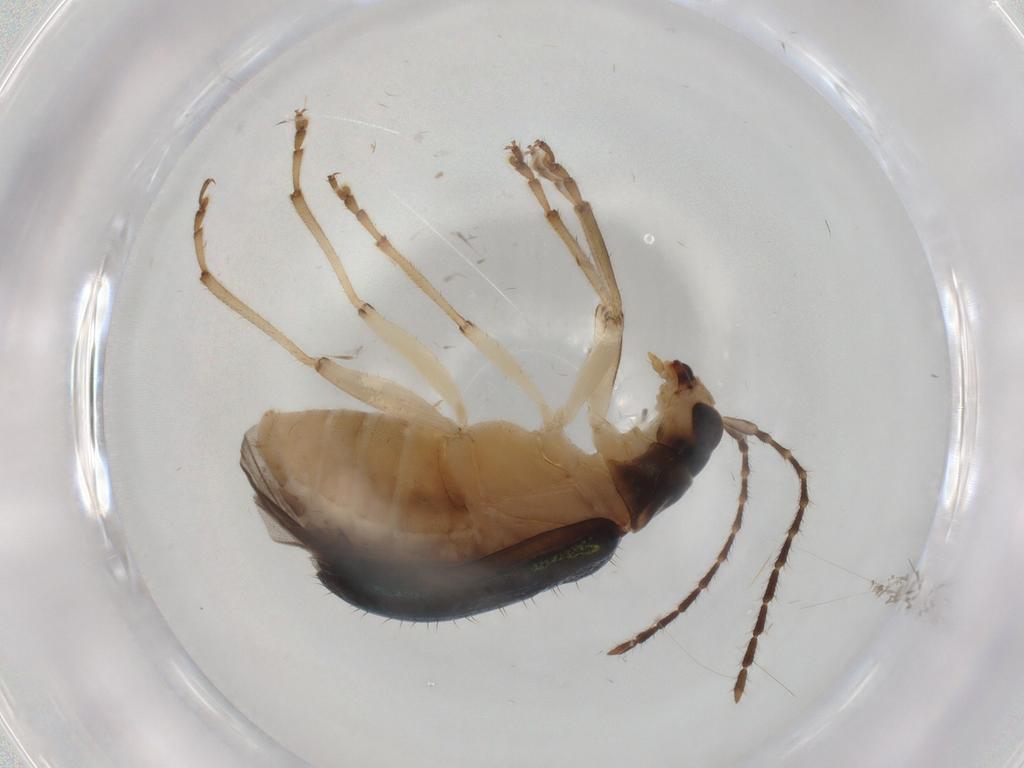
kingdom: Animalia
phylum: Arthropoda
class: Insecta
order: Coleoptera
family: Chrysomelidae
